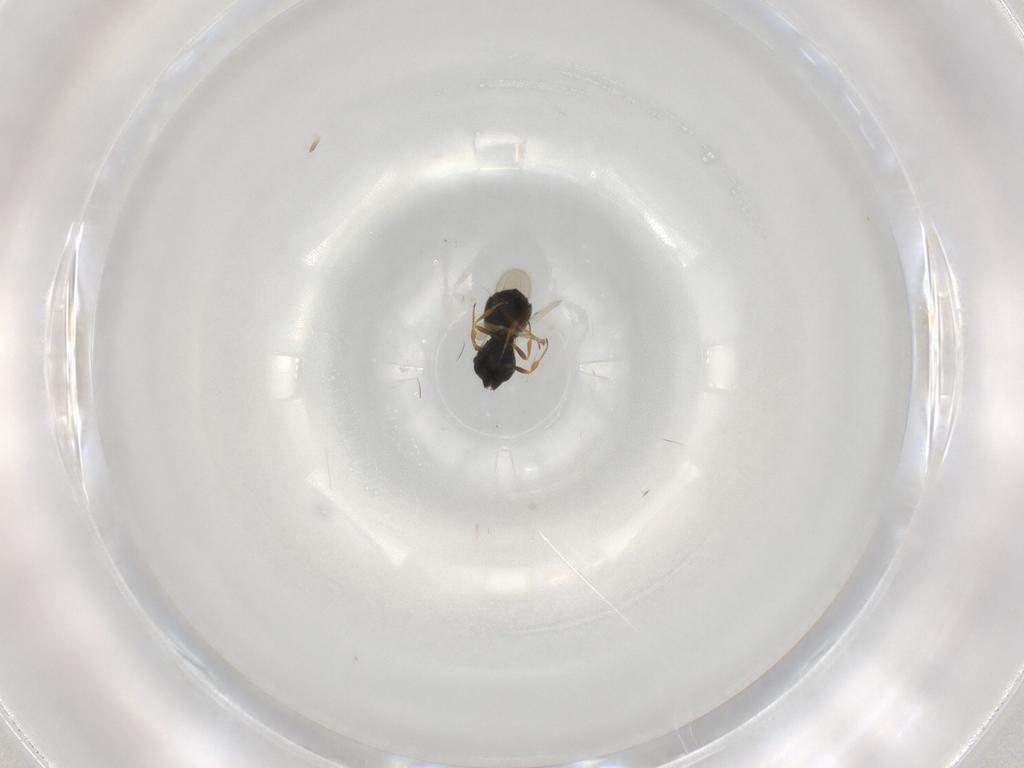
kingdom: Animalia
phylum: Arthropoda
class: Insecta
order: Hymenoptera
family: Scelionidae
